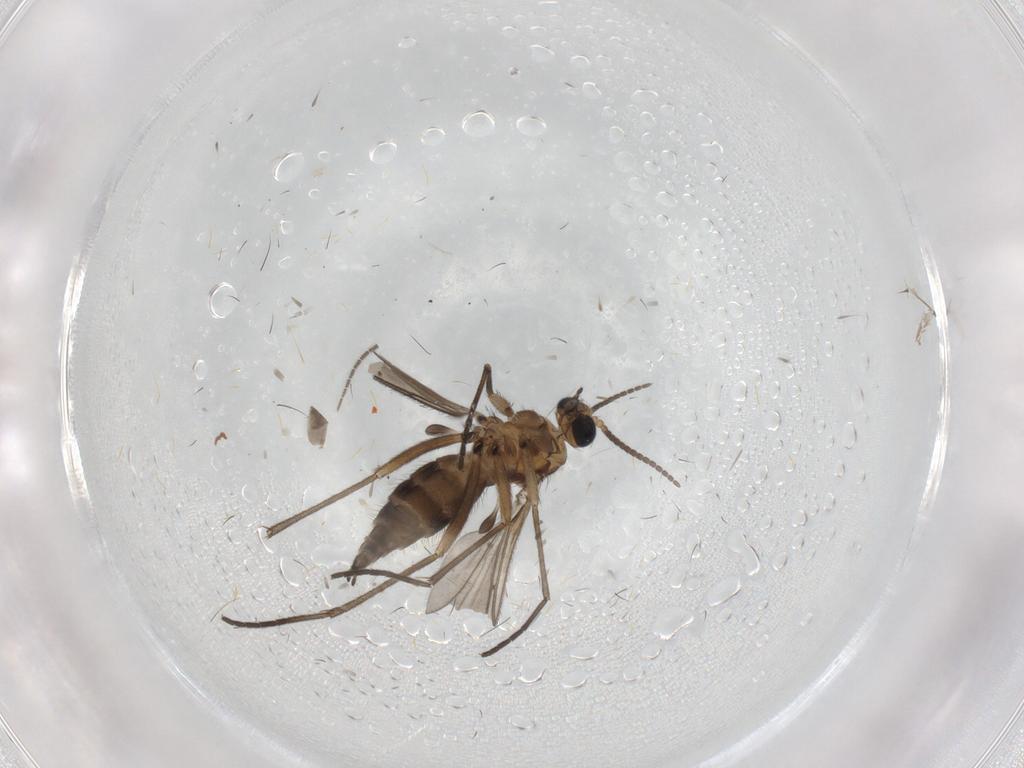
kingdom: Animalia
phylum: Arthropoda
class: Insecta
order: Diptera
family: Sciaridae
